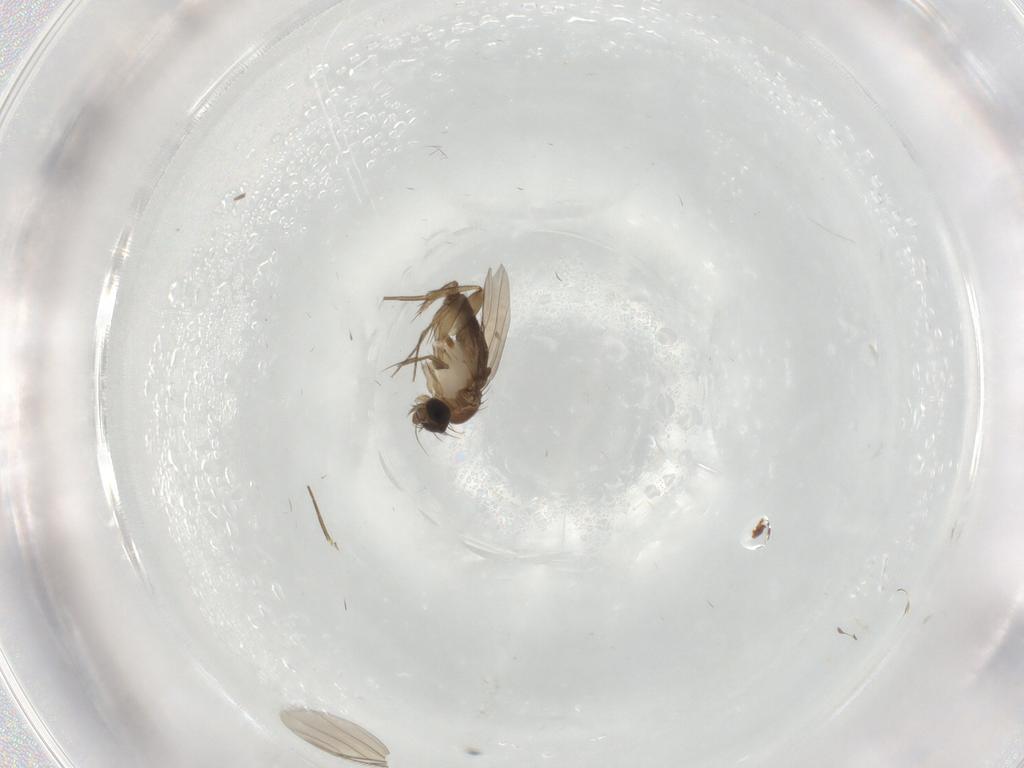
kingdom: Animalia
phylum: Arthropoda
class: Insecta
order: Diptera
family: Phoridae
